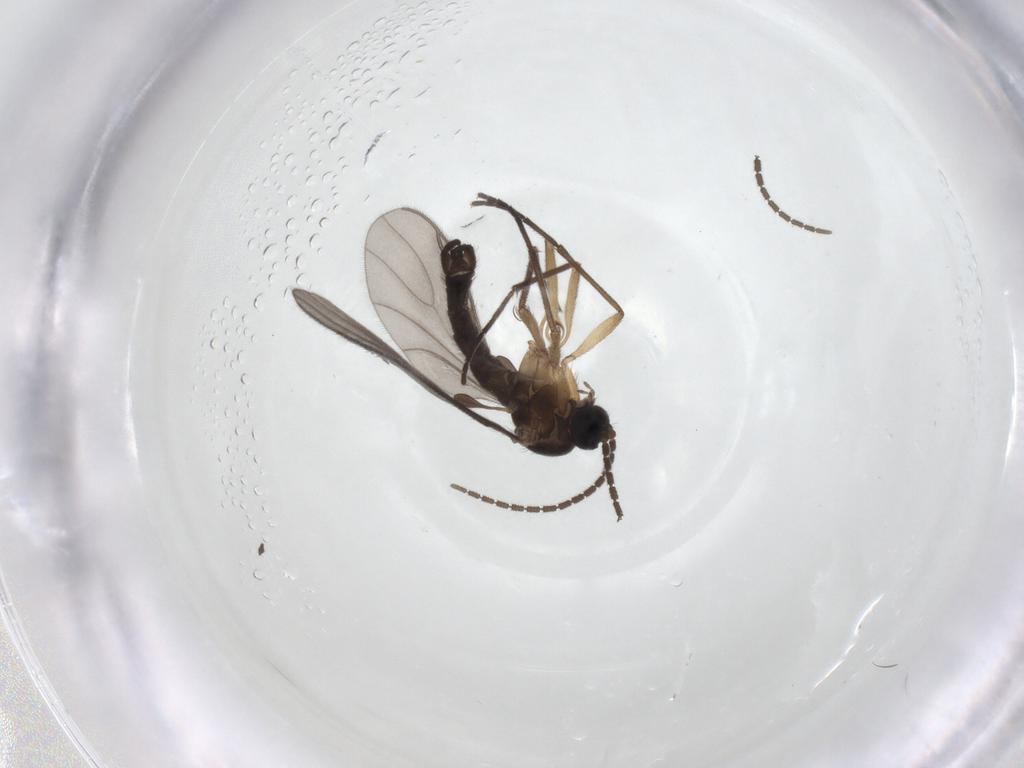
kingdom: Animalia
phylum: Arthropoda
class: Insecta
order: Diptera
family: Sciaridae
